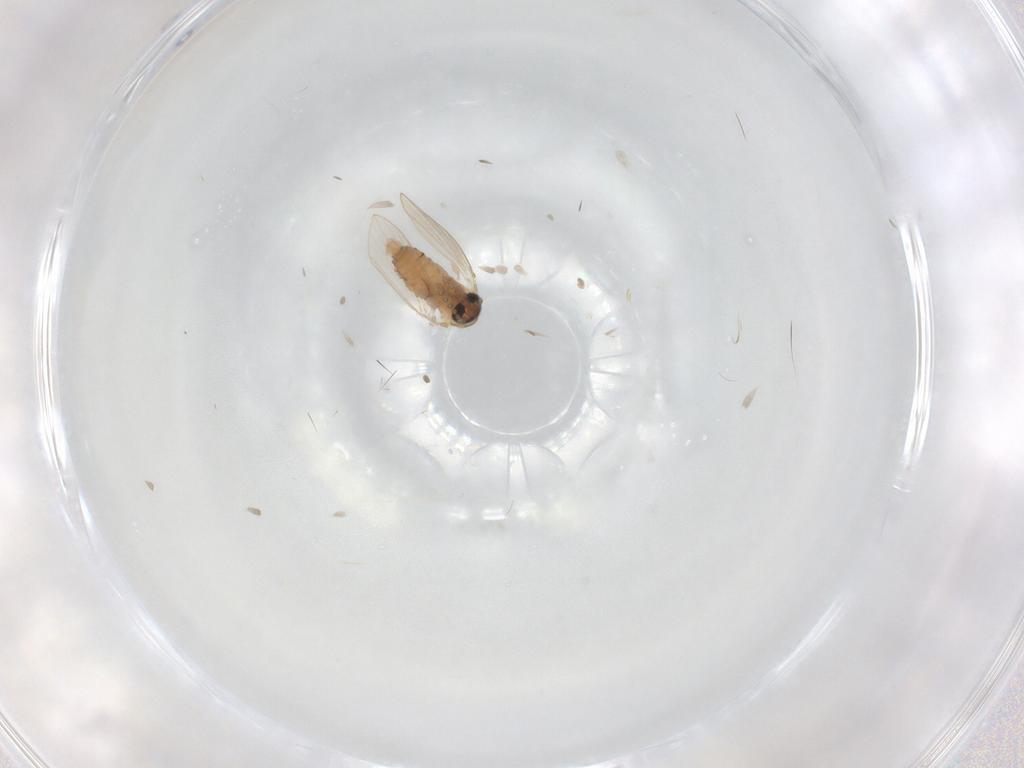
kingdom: Animalia
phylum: Arthropoda
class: Insecta
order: Diptera
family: Psychodidae
